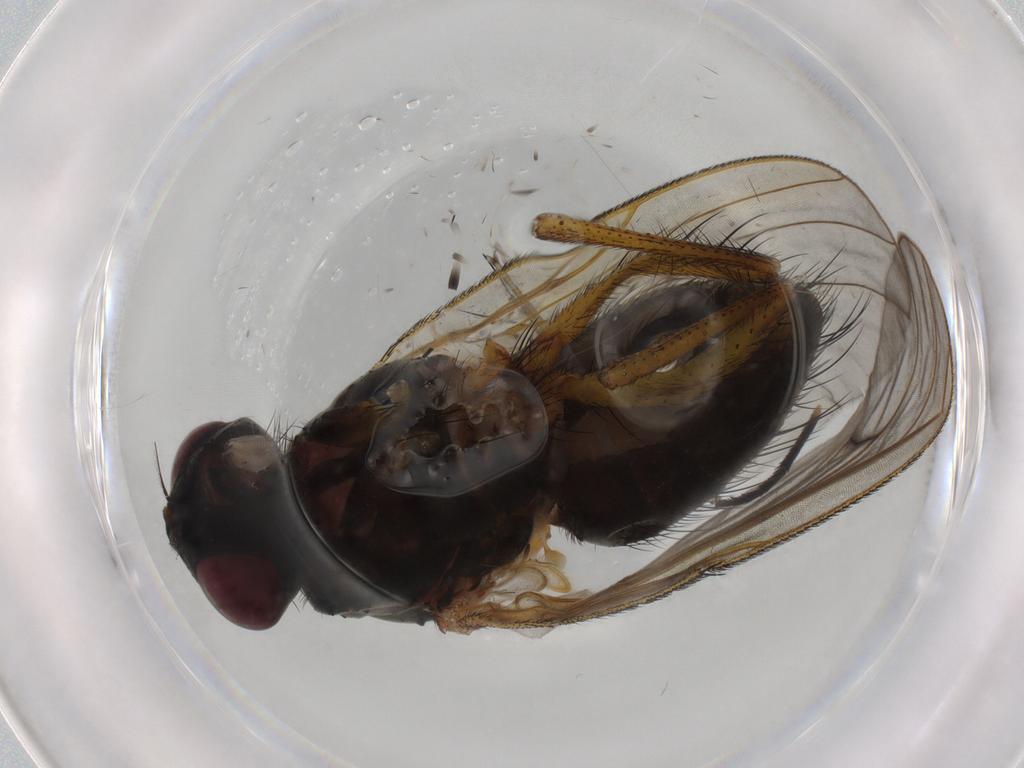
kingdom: Animalia
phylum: Arthropoda
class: Insecta
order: Diptera
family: Muscidae
